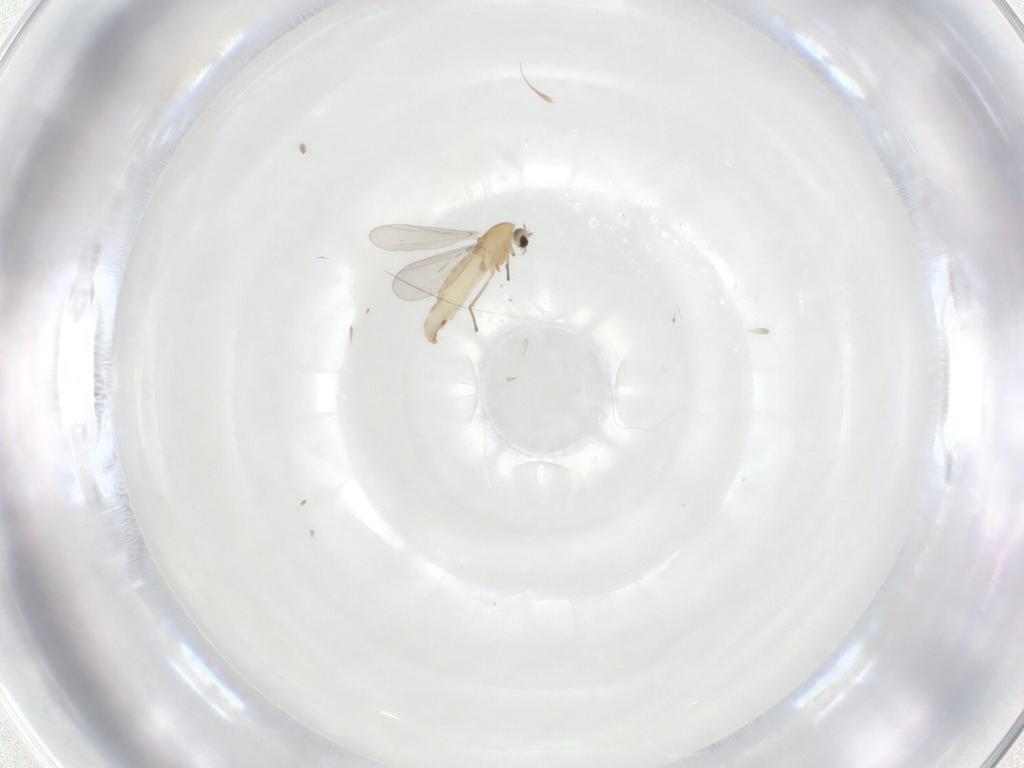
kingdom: Animalia
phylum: Arthropoda
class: Insecta
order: Diptera
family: Chironomidae
